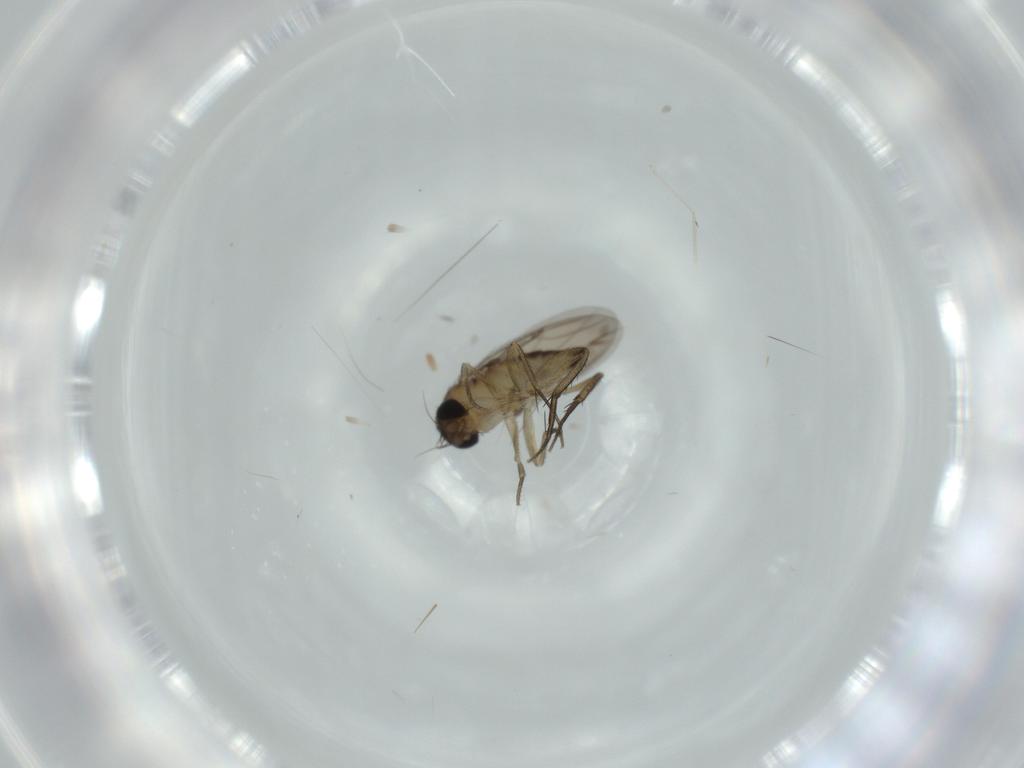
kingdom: Animalia
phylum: Arthropoda
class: Insecta
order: Diptera
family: Phoridae
